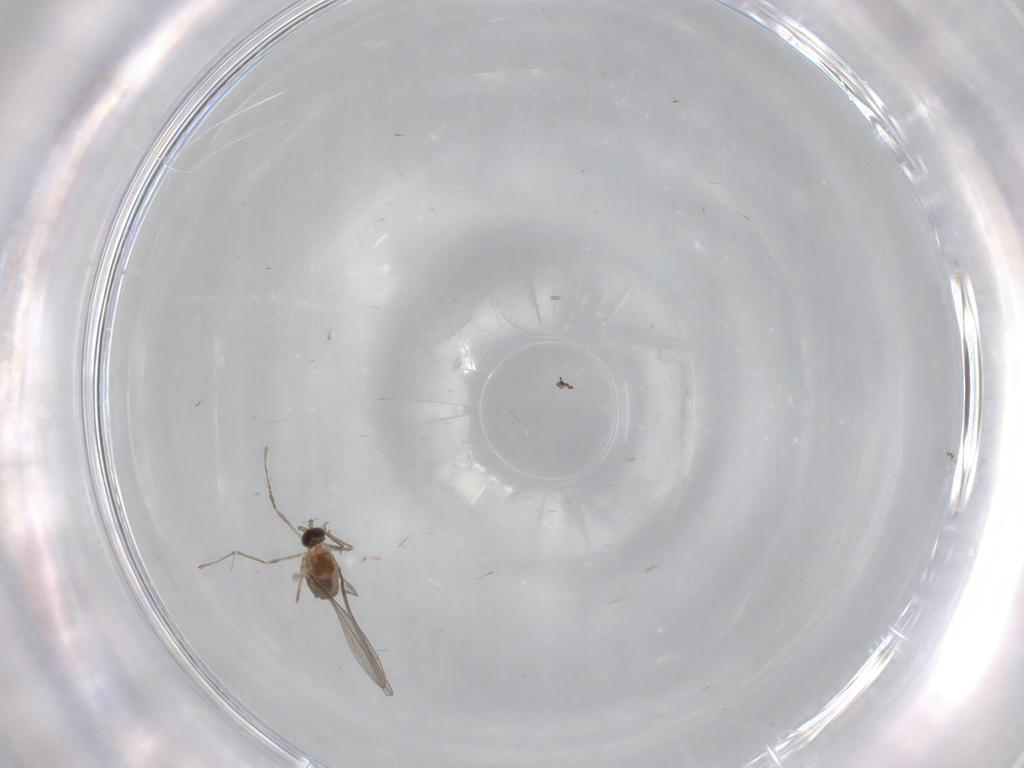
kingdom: Animalia
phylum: Arthropoda
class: Insecta
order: Diptera
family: Cecidomyiidae
